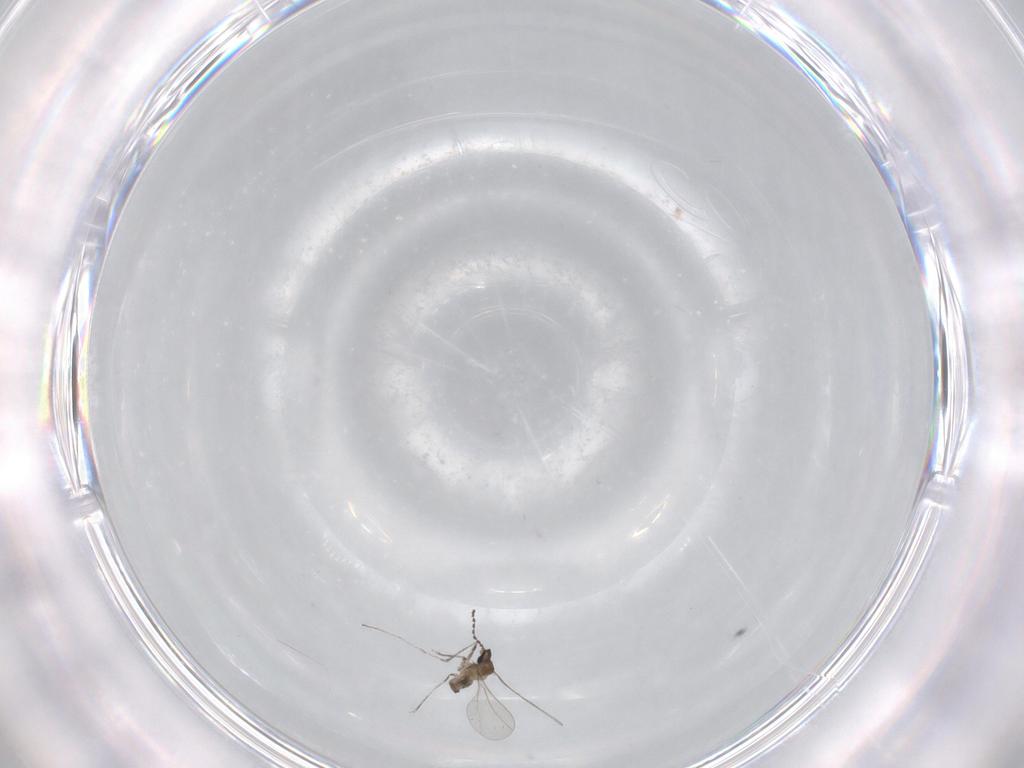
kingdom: Animalia
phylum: Arthropoda
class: Insecta
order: Diptera
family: Cecidomyiidae
